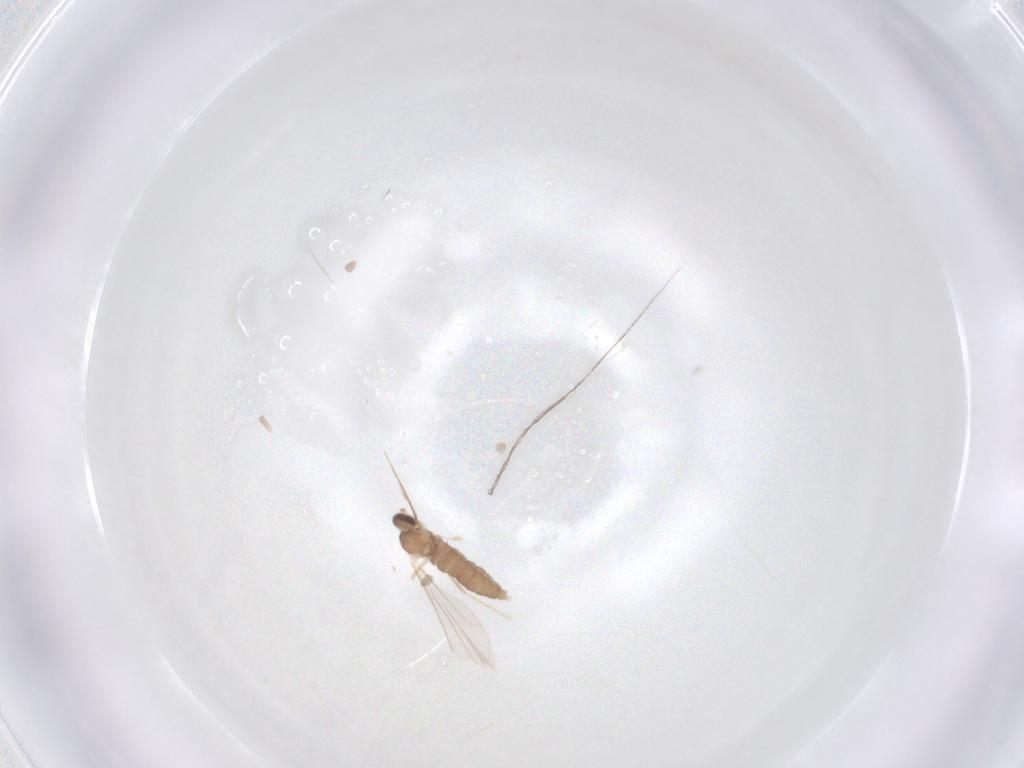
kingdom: Animalia
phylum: Arthropoda
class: Insecta
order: Diptera
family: Cecidomyiidae
